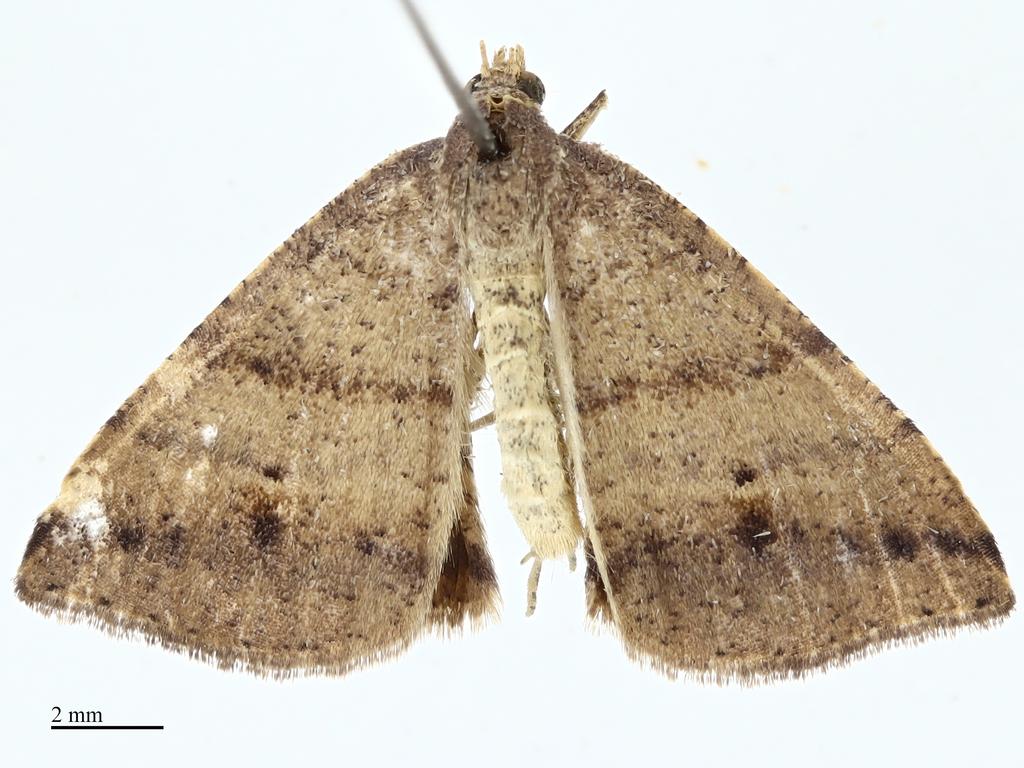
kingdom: Animalia
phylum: Arthropoda
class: Insecta
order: Lepidoptera
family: Geometridae
